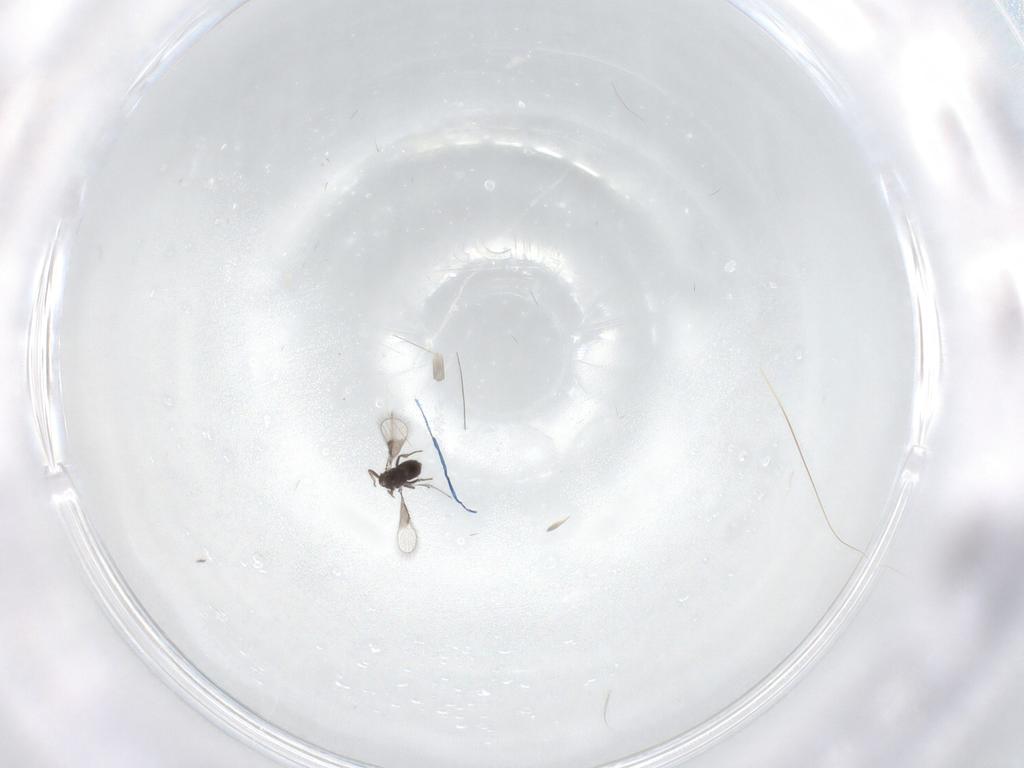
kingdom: Animalia
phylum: Arthropoda
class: Insecta
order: Hymenoptera
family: Trichogrammatidae
